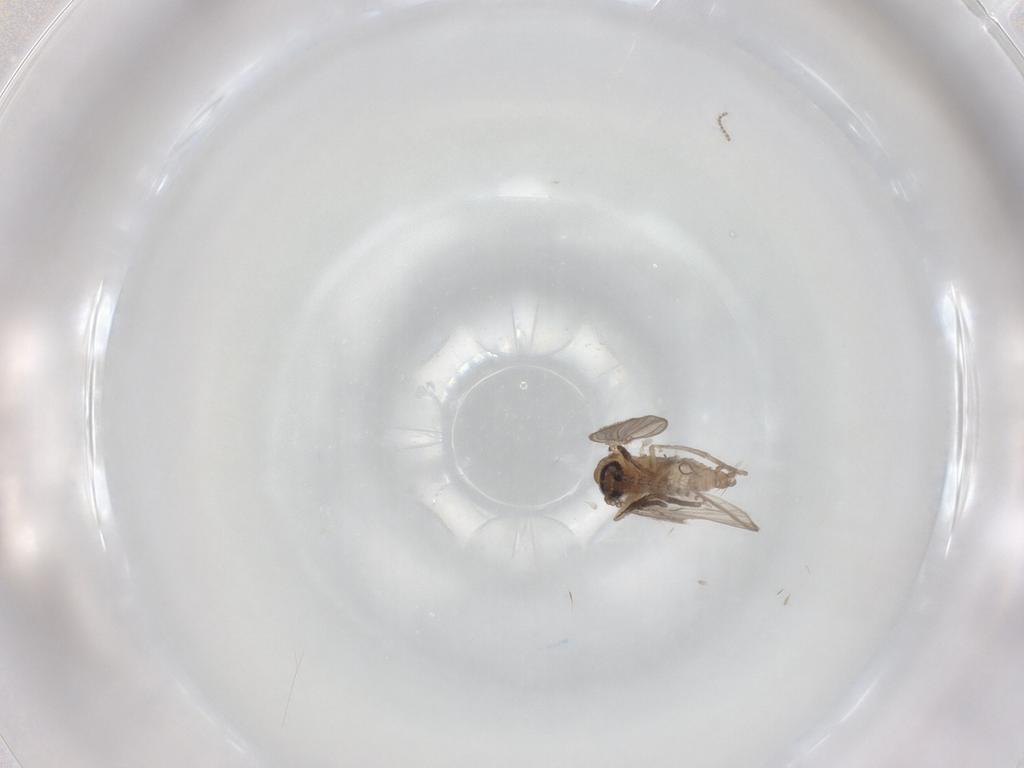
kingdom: Animalia
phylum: Arthropoda
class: Insecta
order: Diptera
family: Psychodidae
